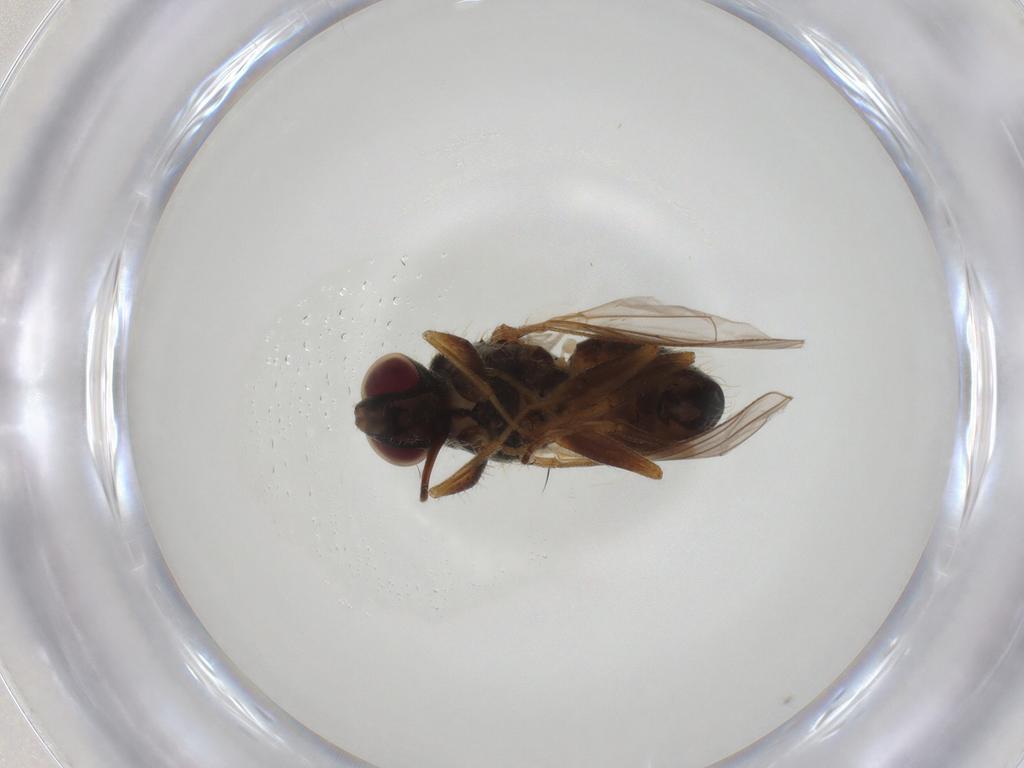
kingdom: Animalia
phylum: Arthropoda
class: Insecta
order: Diptera
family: Muscidae
